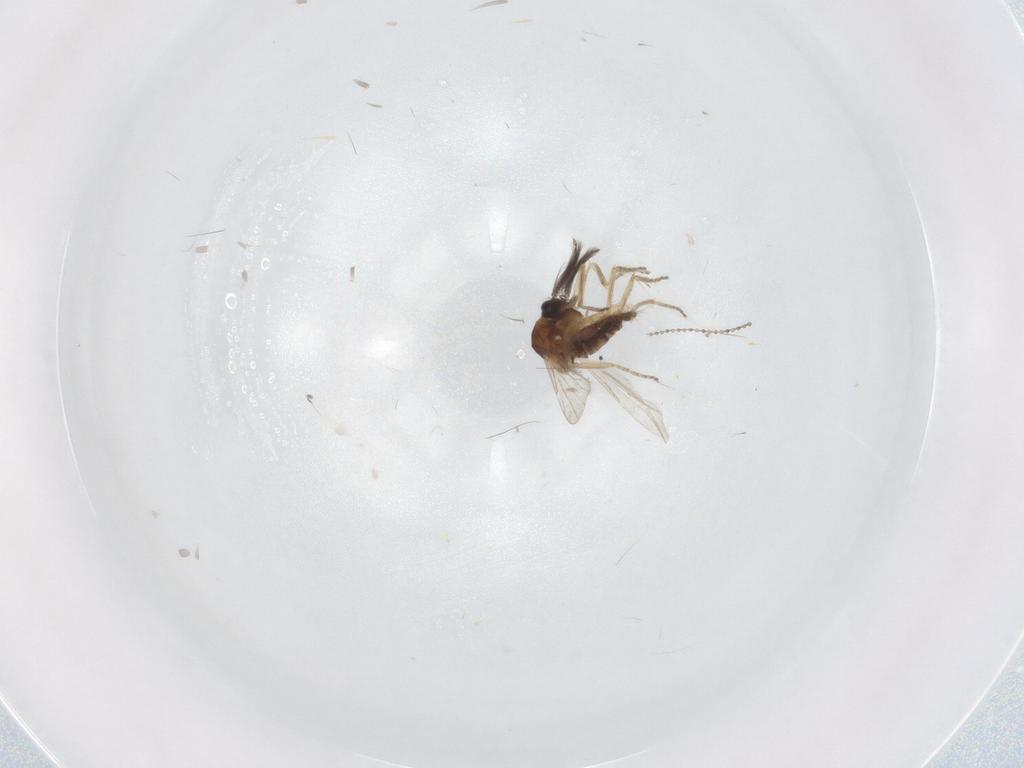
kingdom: Animalia
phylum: Arthropoda
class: Insecta
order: Diptera
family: Ceratopogonidae
